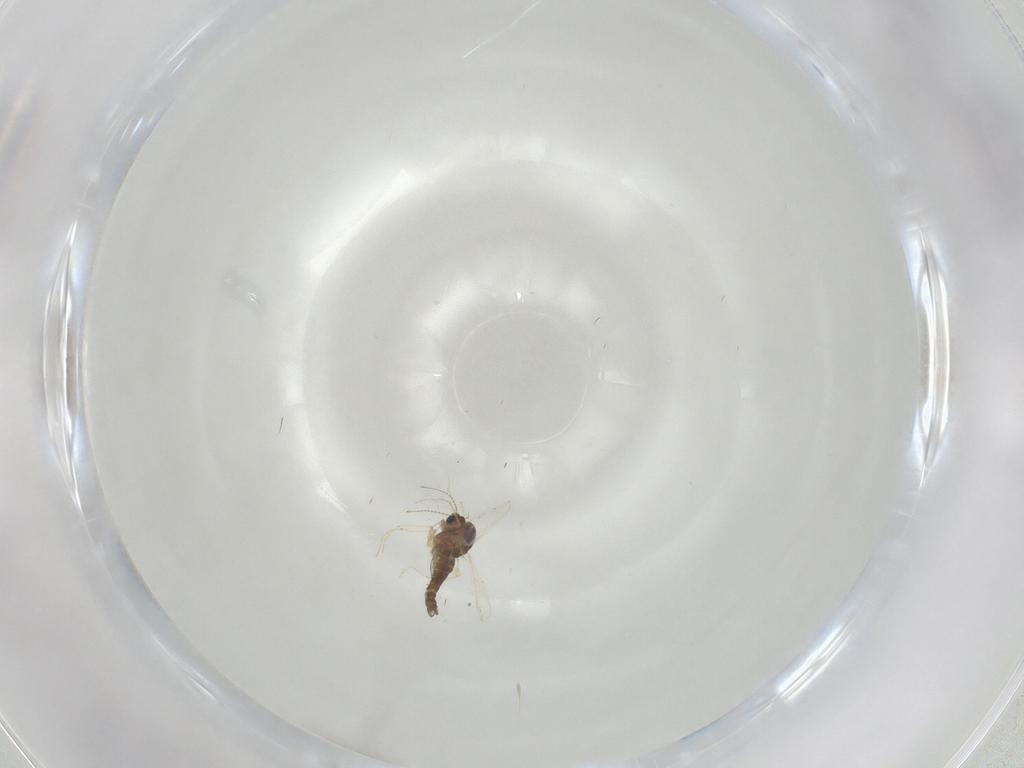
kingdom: Animalia
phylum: Arthropoda
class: Insecta
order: Diptera
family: Chironomidae
